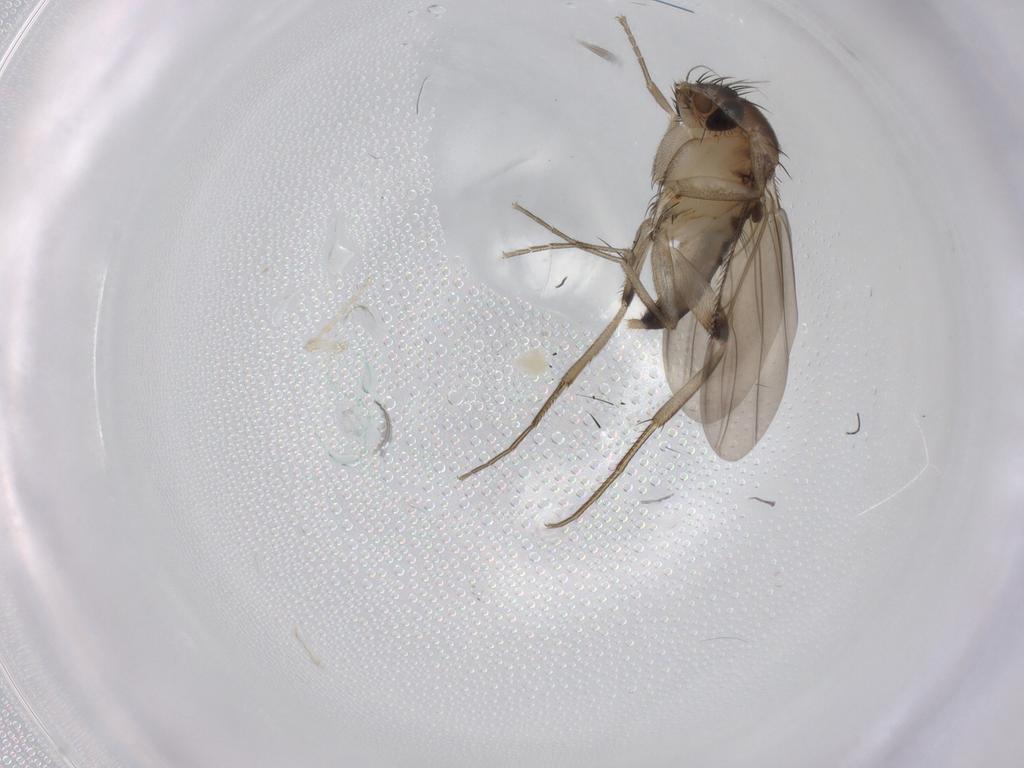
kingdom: Animalia
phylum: Arthropoda
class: Insecta
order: Diptera
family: Phoridae
